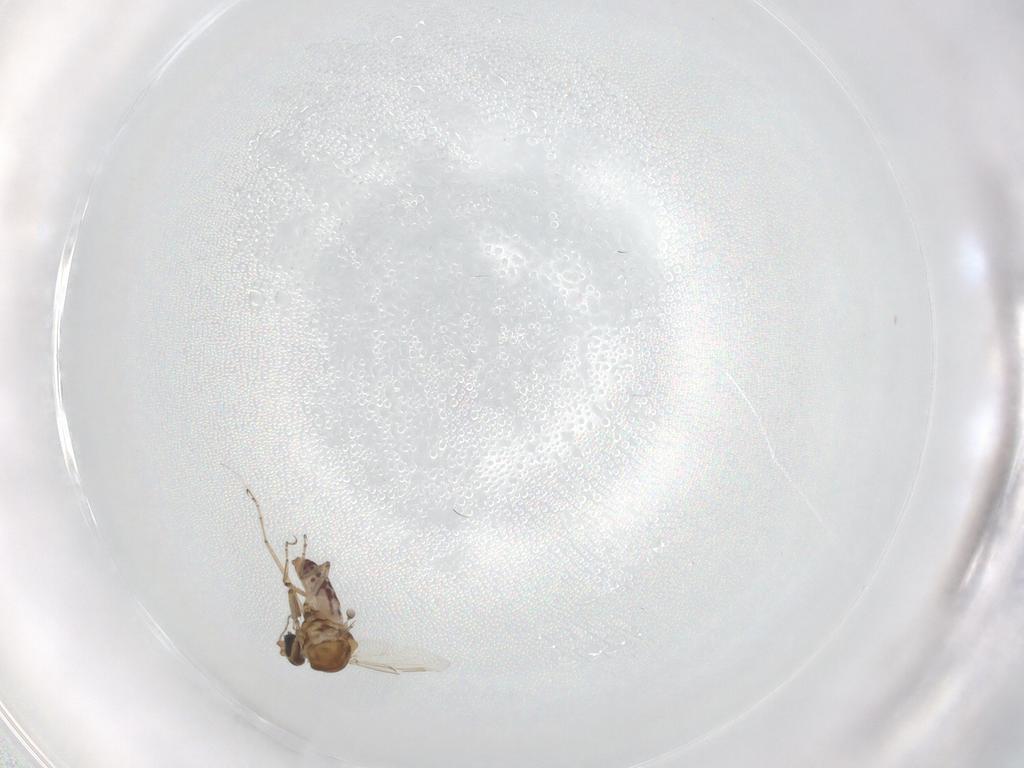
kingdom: Animalia
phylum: Arthropoda
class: Insecta
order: Diptera
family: Ceratopogonidae
